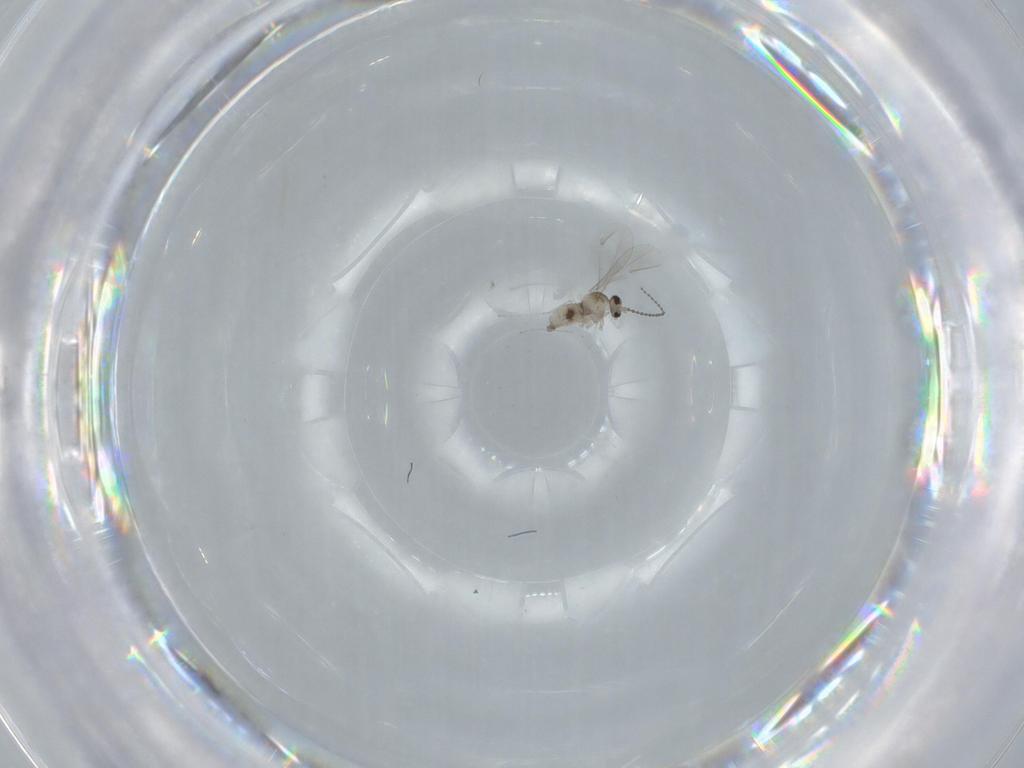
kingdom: Animalia
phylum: Arthropoda
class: Insecta
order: Diptera
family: Cecidomyiidae
